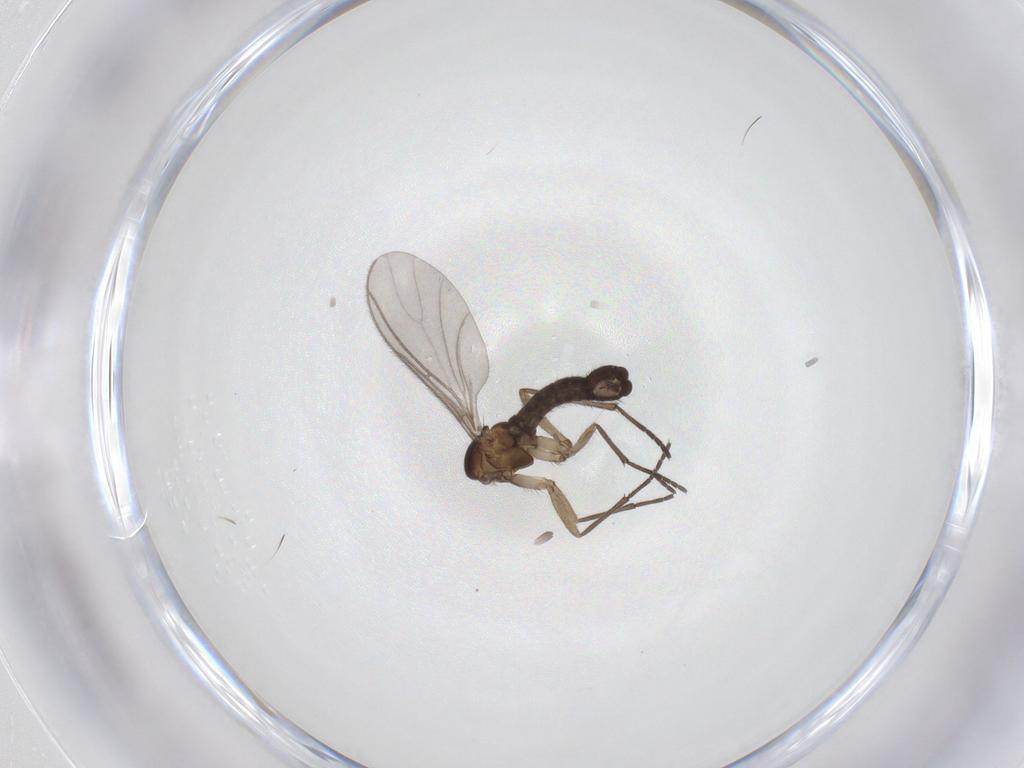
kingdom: Animalia
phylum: Arthropoda
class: Insecta
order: Diptera
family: Sciaridae
